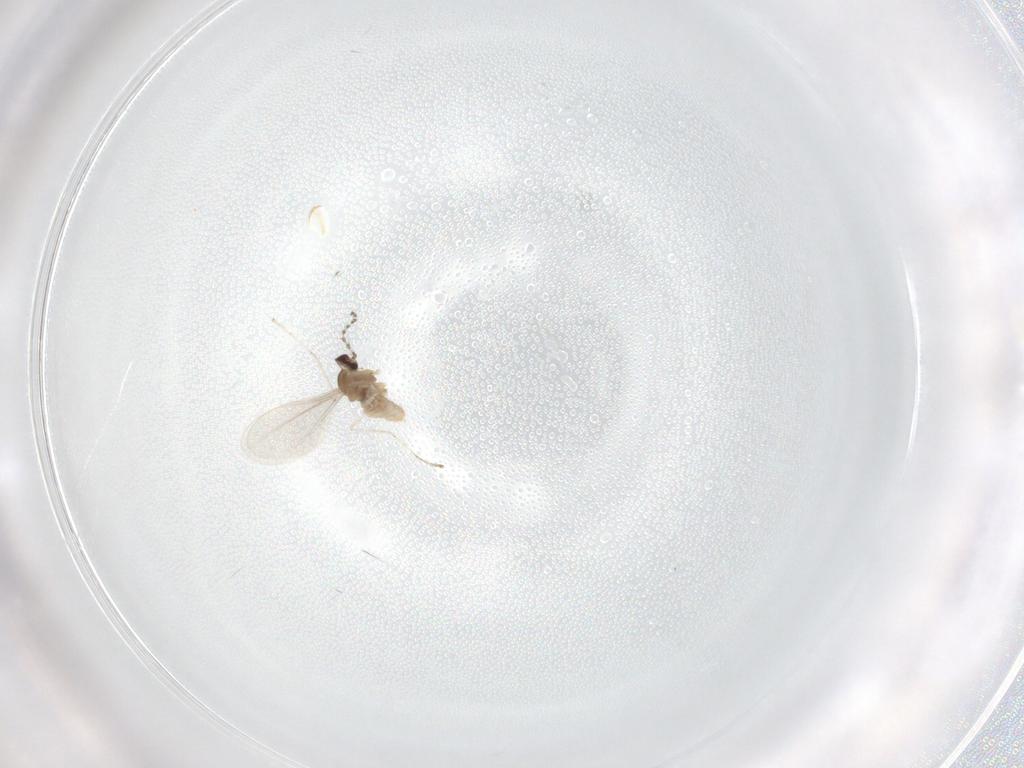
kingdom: Animalia
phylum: Arthropoda
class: Insecta
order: Diptera
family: Cecidomyiidae
